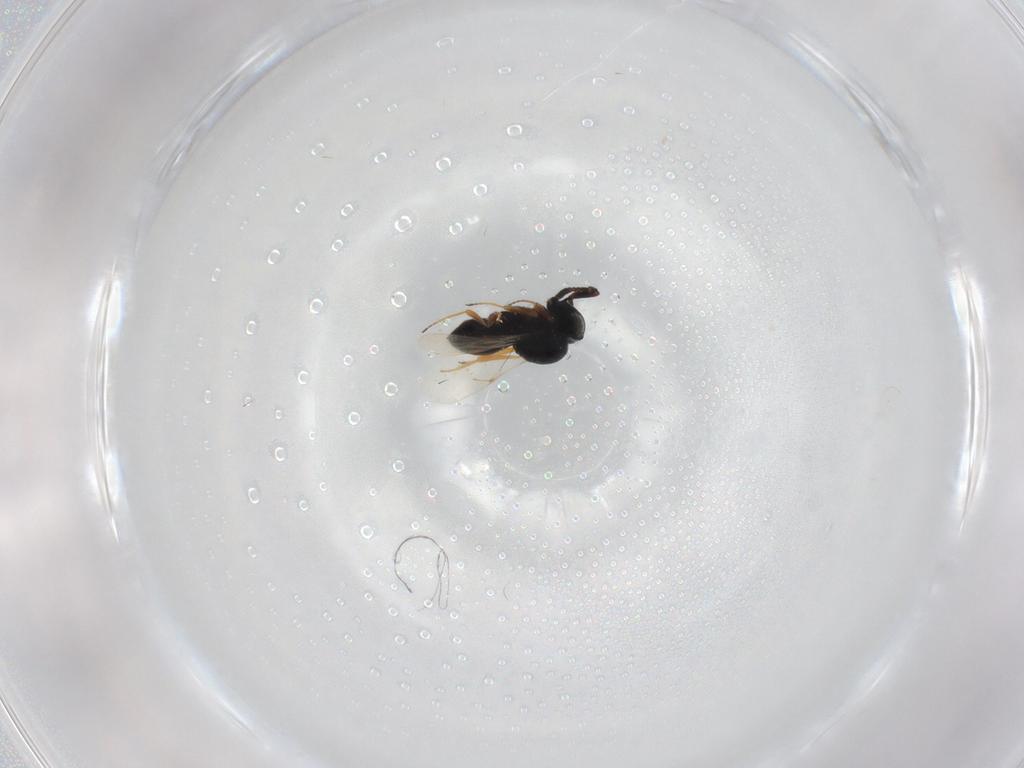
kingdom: Animalia
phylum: Arthropoda
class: Insecta
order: Hymenoptera
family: Scelionidae
